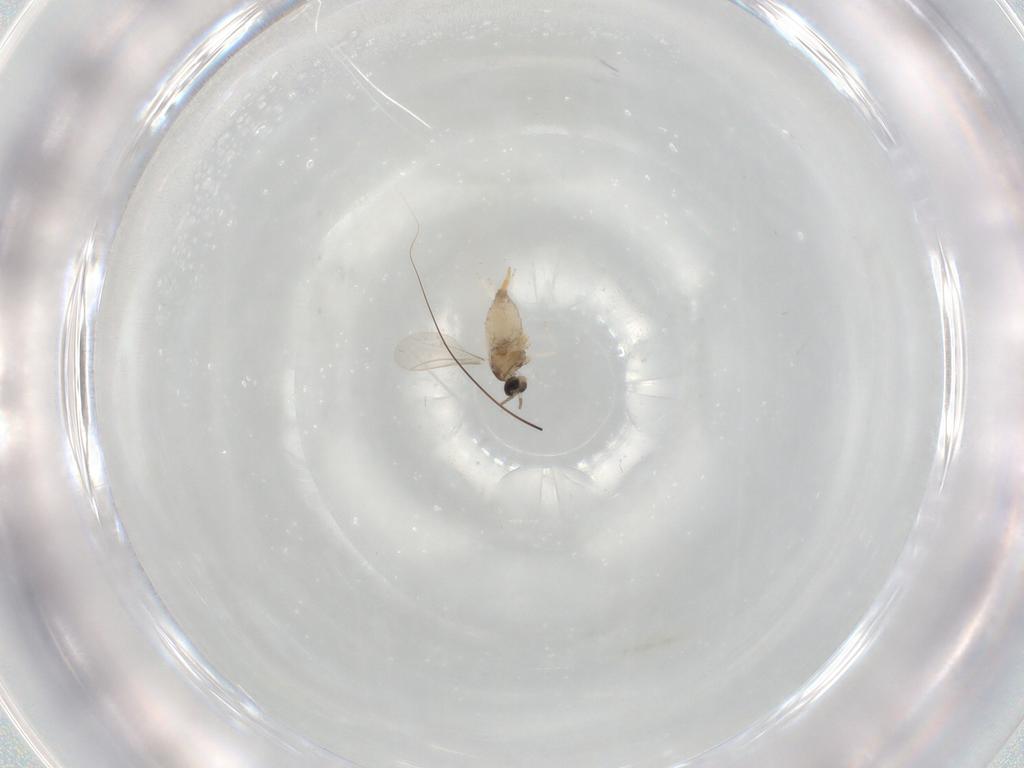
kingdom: Animalia
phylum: Arthropoda
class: Insecta
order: Diptera
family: Cecidomyiidae
